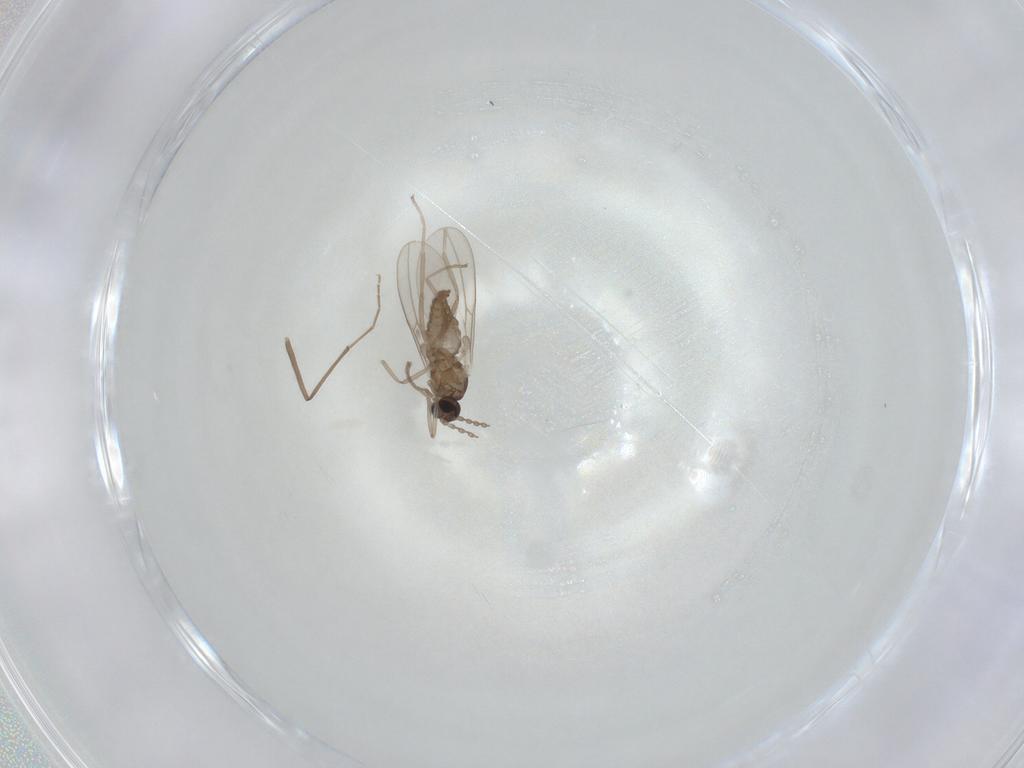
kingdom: Animalia
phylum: Arthropoda
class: Insecta
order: Diptera
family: Cecidomyiidae
